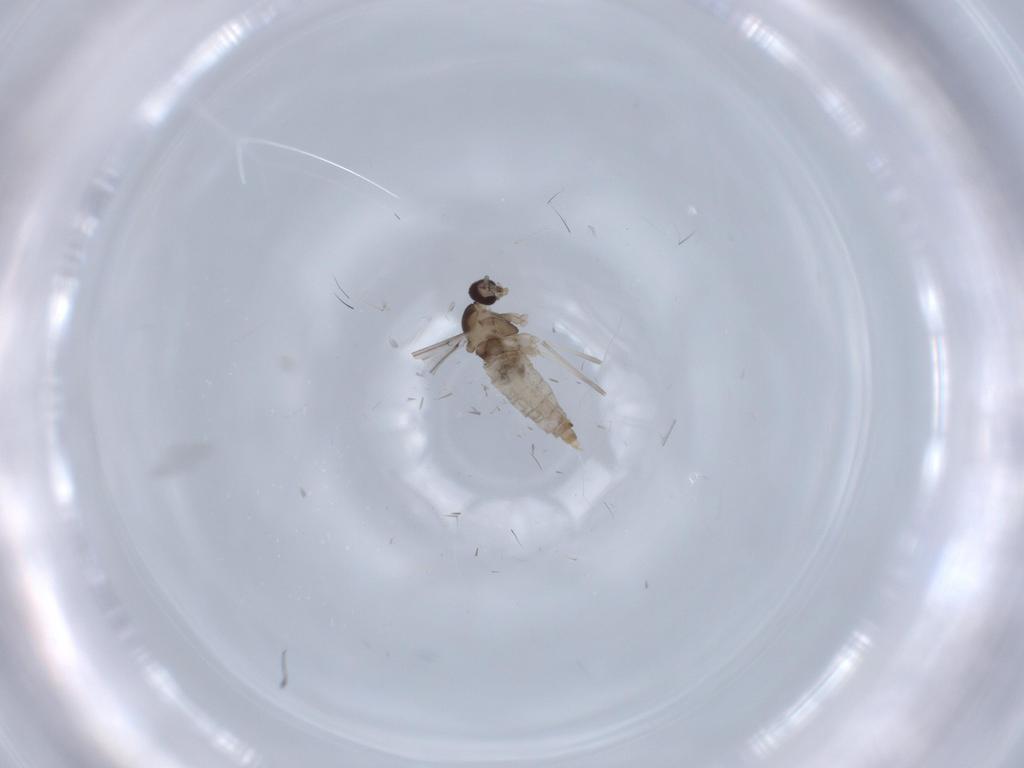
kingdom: Animalia
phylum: Arthropoda
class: Insecta
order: Diptera
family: Cecidomyiidae
